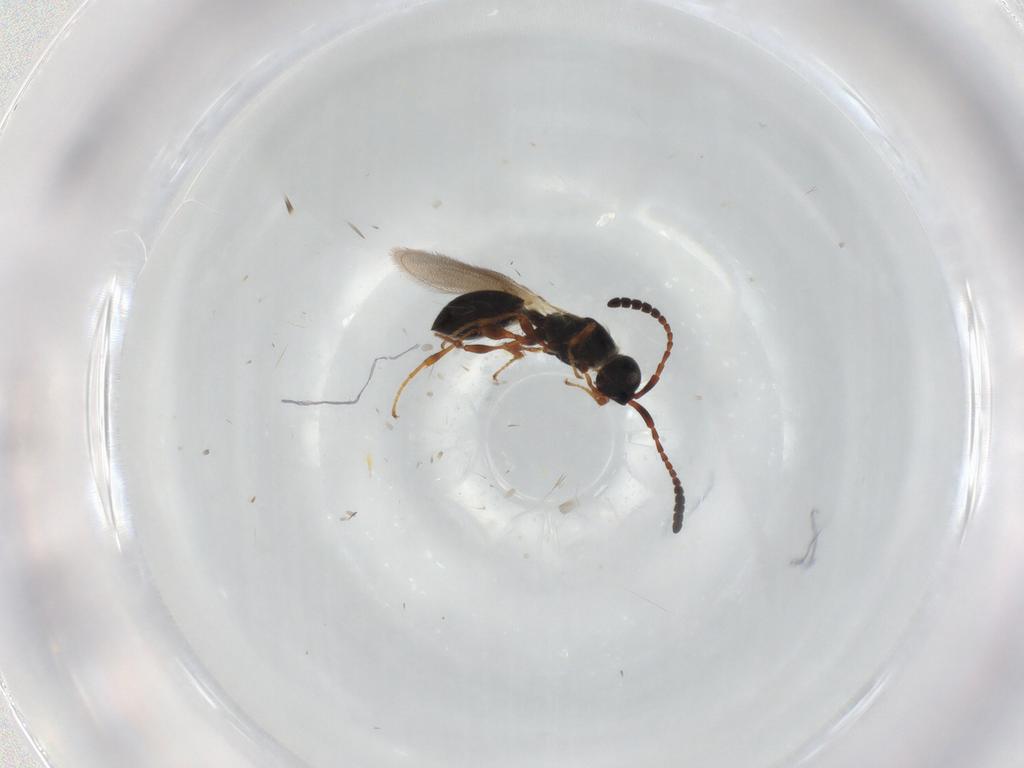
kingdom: Animalia
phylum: Arthropoda
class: Insecta
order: Hymenoptera
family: Diapriidae
